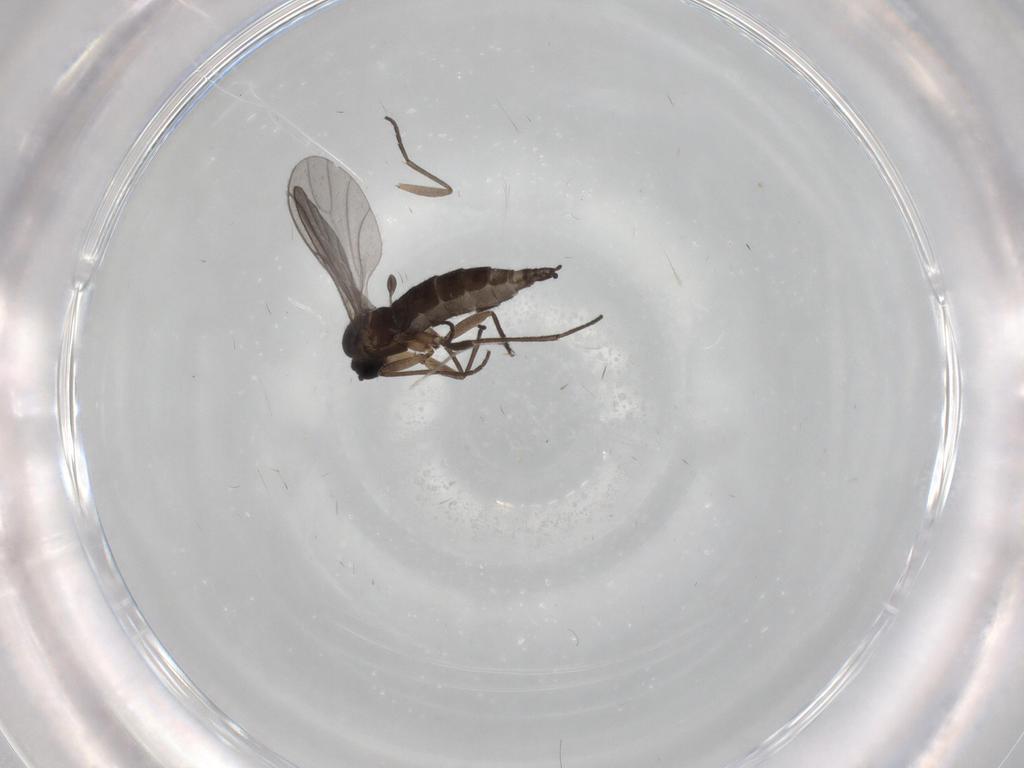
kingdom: Animalia
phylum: Arthropoda
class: Insecta
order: Diptera
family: Sciaridae
